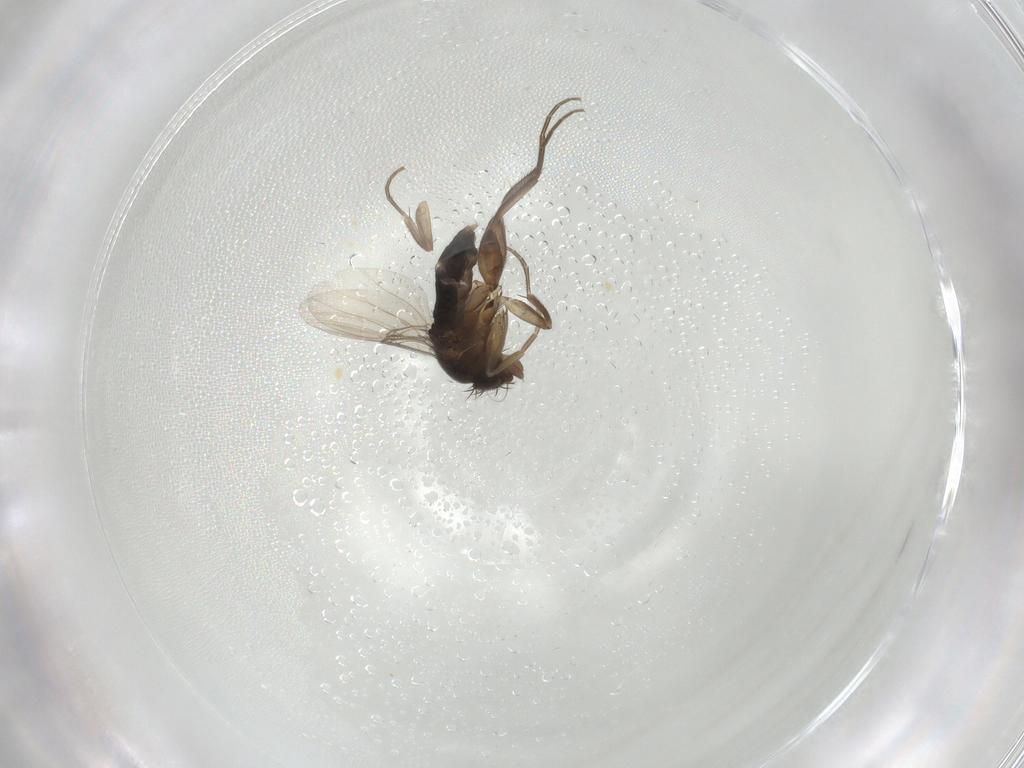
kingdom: Animalia
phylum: Arthropoda
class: Insecta
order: Diptera
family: Phoridae
